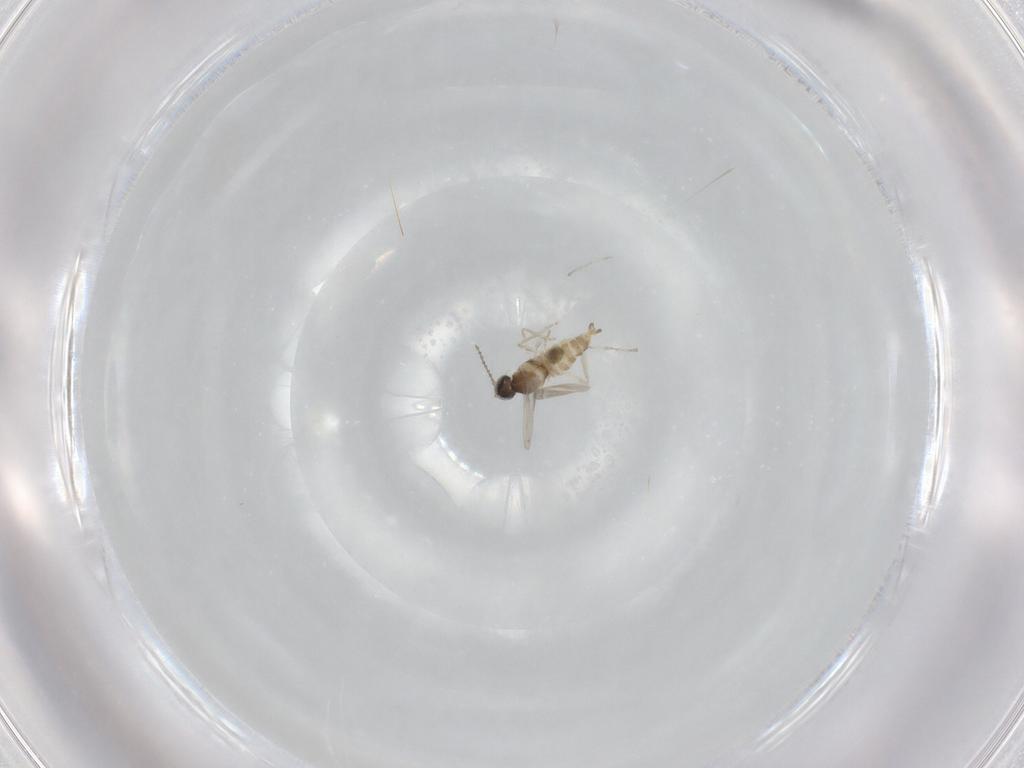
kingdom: Animalia
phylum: Arthropoda
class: Insecta
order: Diptera
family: Cecidomyiidae
